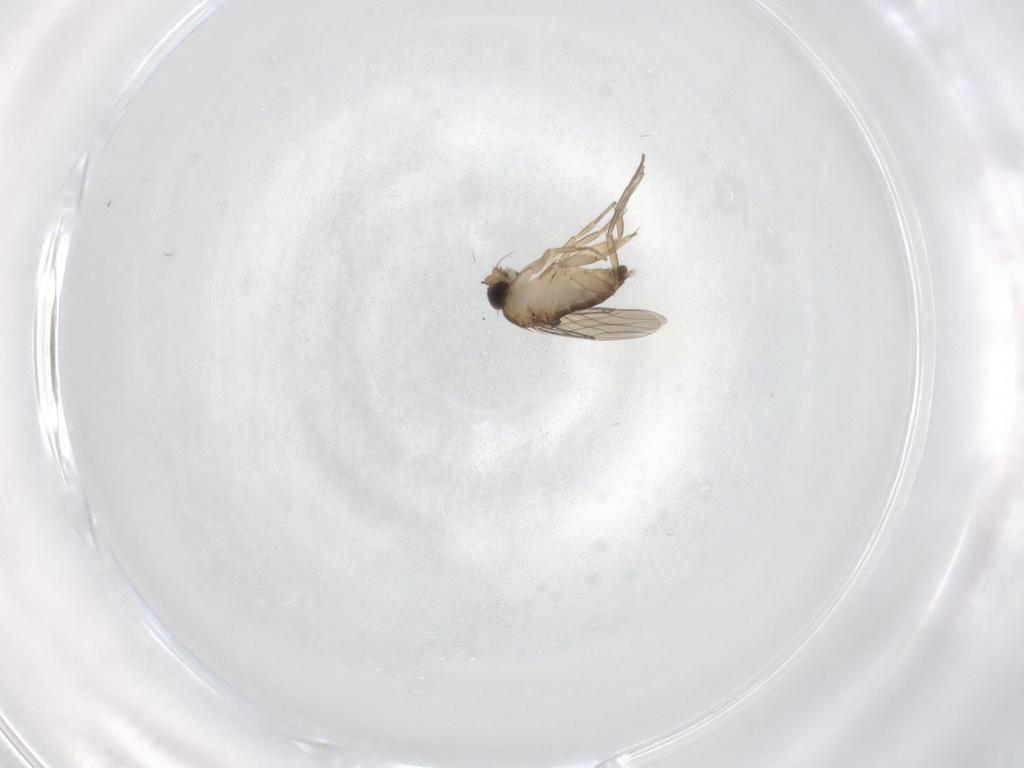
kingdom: Animalia
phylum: Arthropoda
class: Insecta
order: Diptera
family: Phoridae
